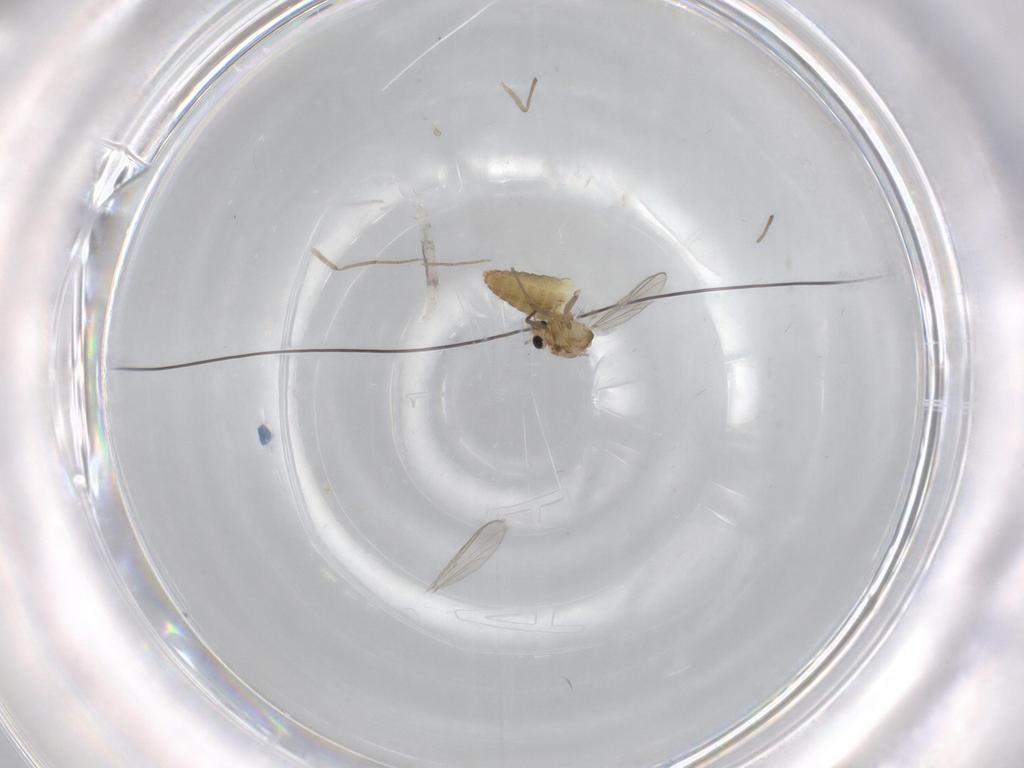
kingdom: Animalia
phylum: Arthropoda
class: Insecta
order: Diptera
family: Chironomidae
